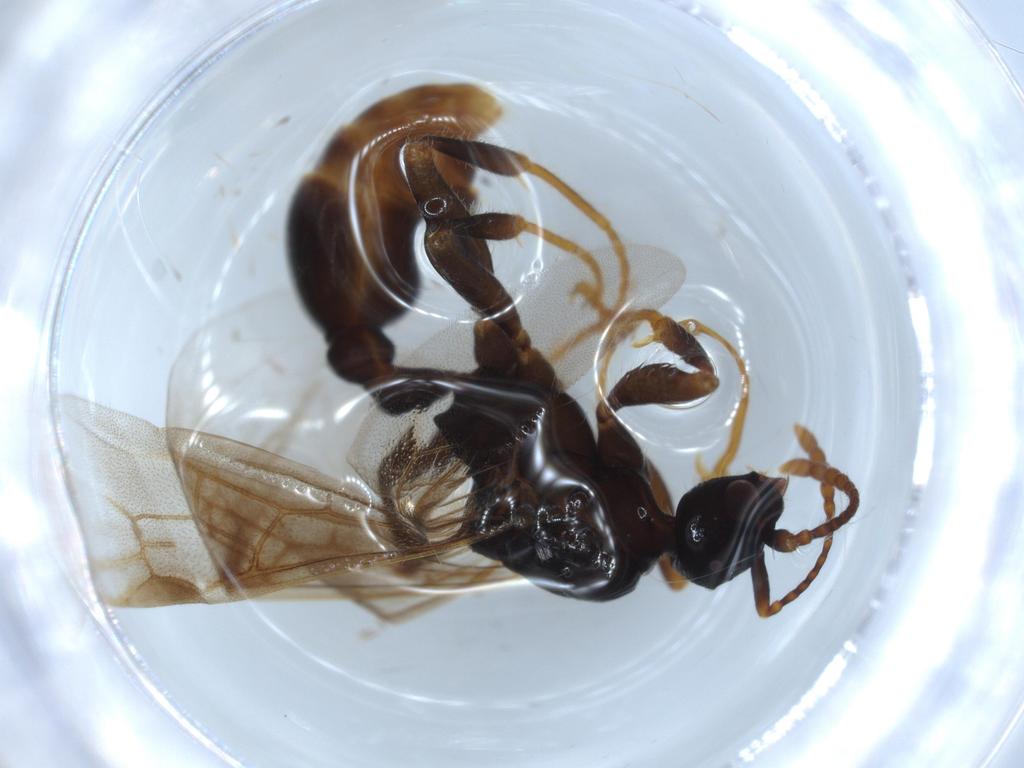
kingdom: Animalia
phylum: Arthropoda
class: Insecta
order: Hymenoptera
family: Formicidae
